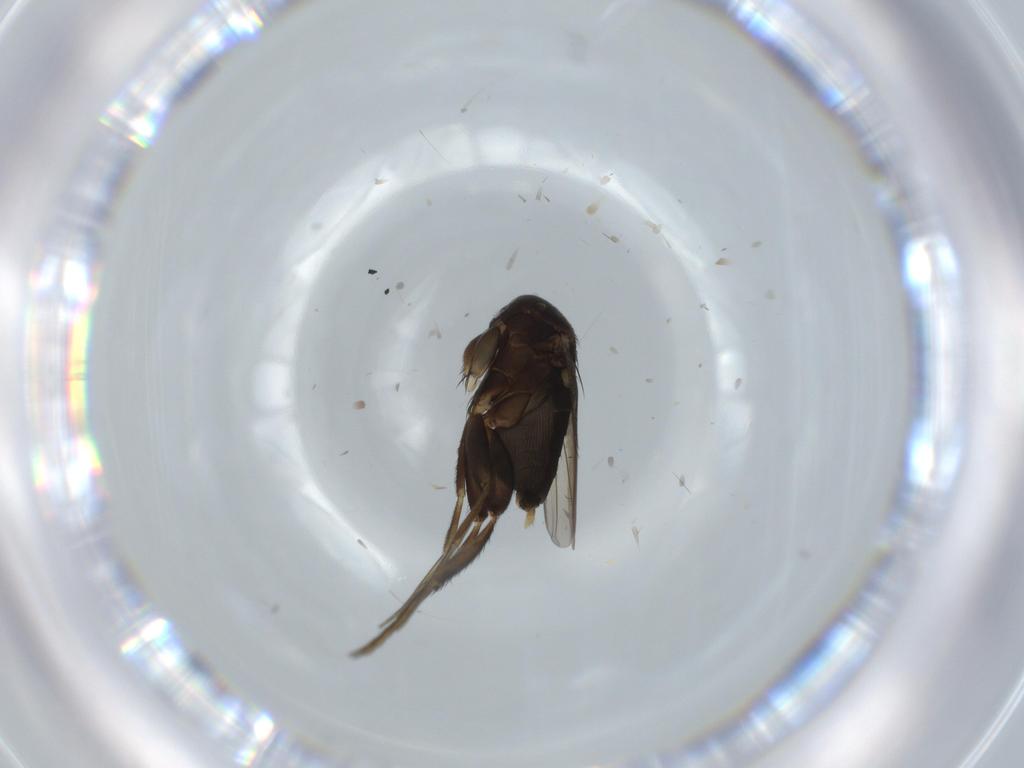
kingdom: Animalia
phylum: Arthropoda
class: Insecta
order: Diptera
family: Phoridae
